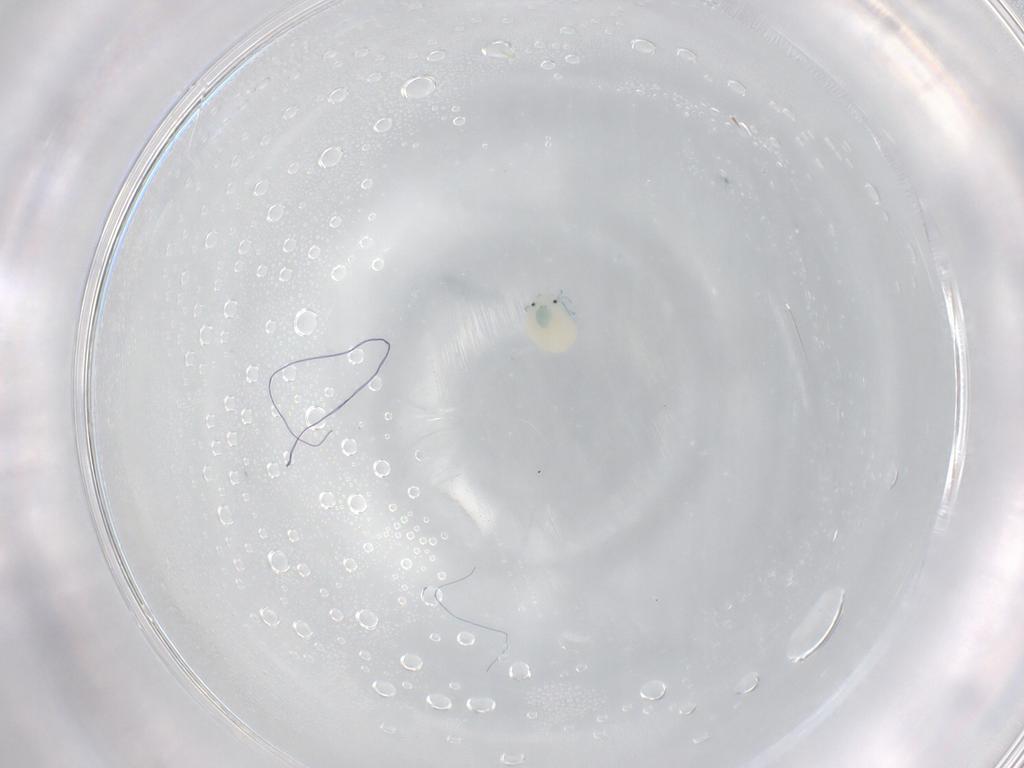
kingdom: Animalia
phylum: Arthropoda
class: Arachnida
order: Trombidiformes
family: Arrenuridae
